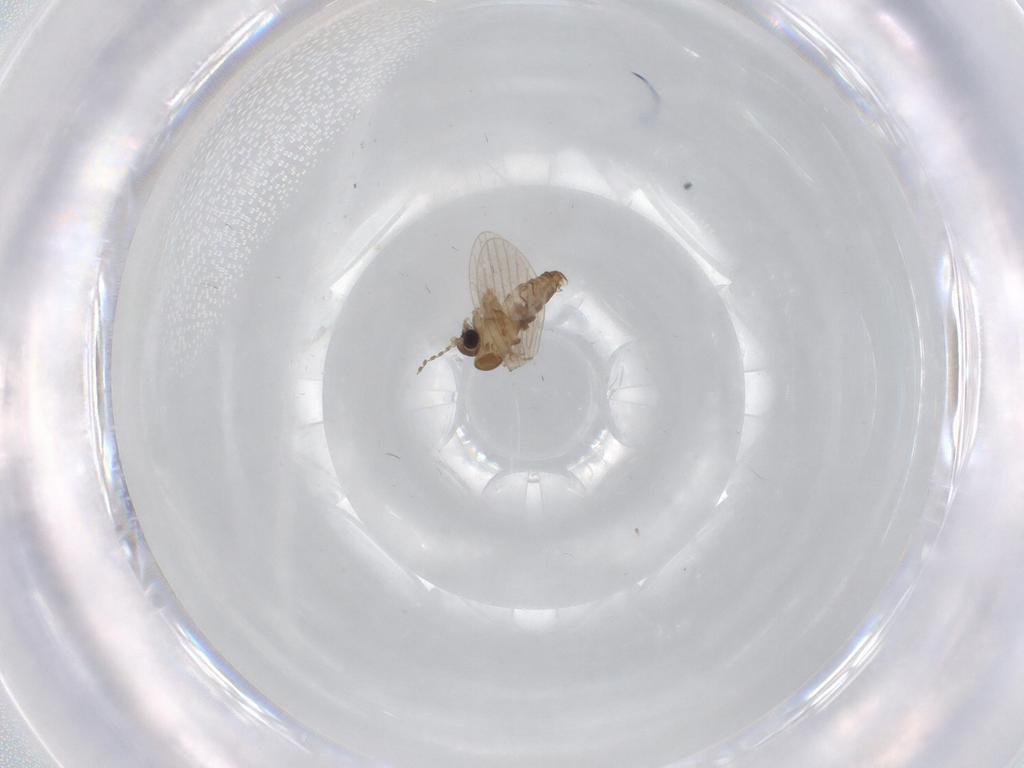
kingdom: Animalia
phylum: Arthropoda
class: Insecta
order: Diptera
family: Psychodidae
